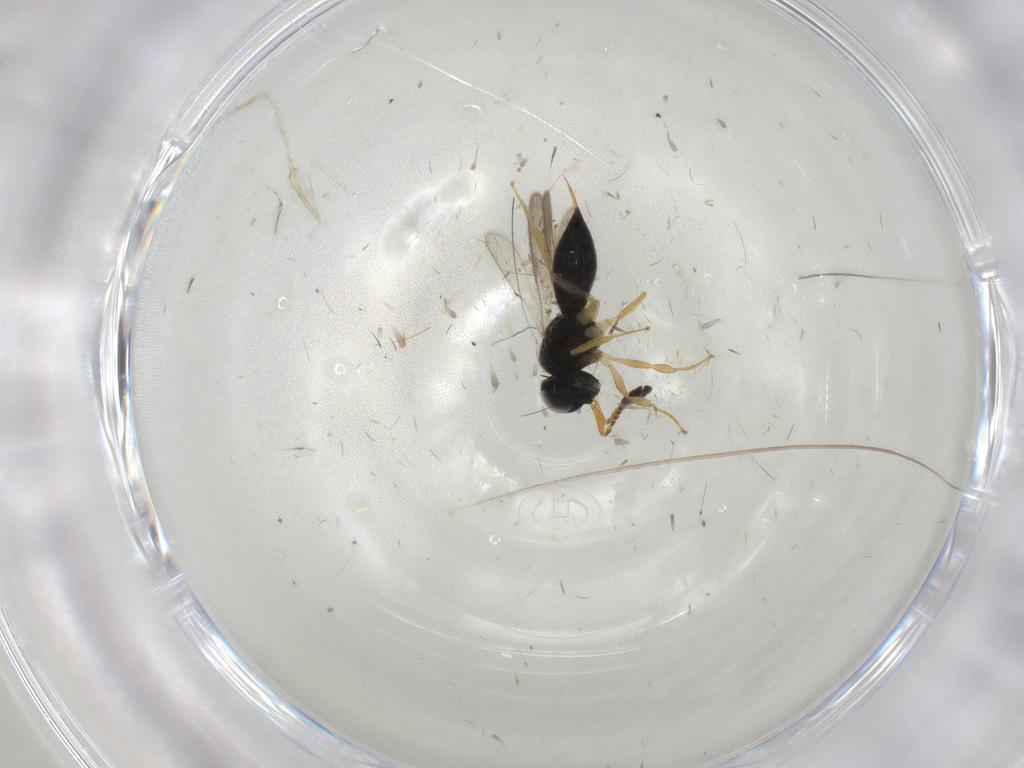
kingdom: Animalia
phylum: Arthropoda
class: Insecta
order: Hymenoptera
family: Scelionidae
